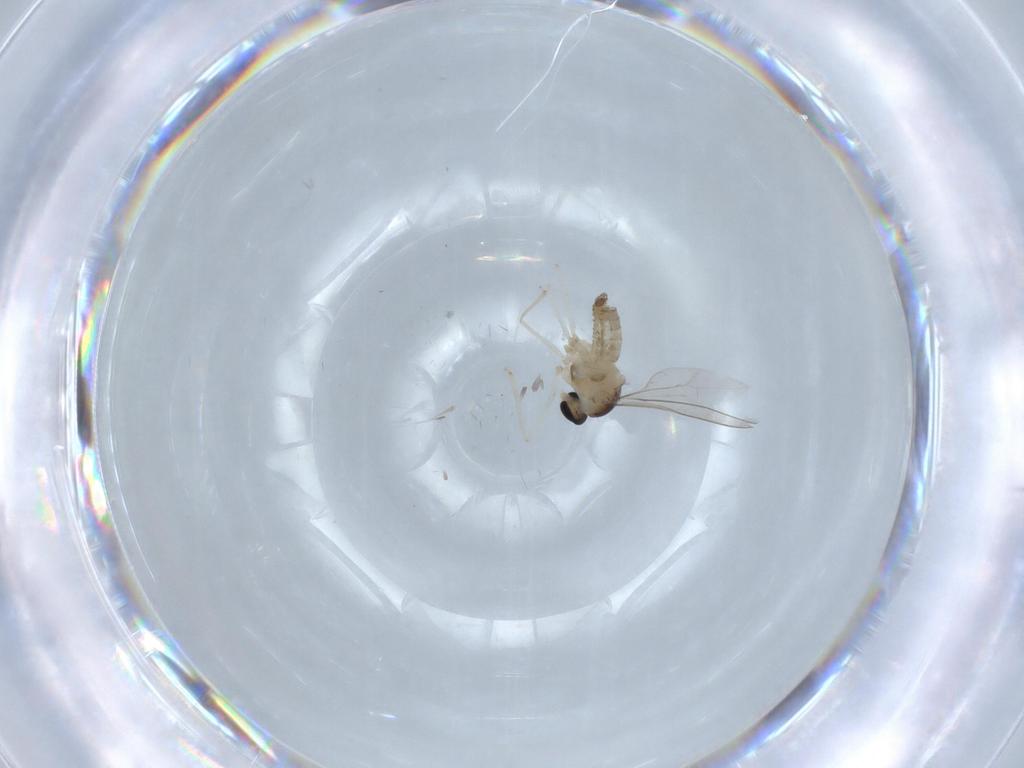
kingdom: Animalia
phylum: Arthropoda
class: Insecta
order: Diptera
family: Cecidomyiidae
